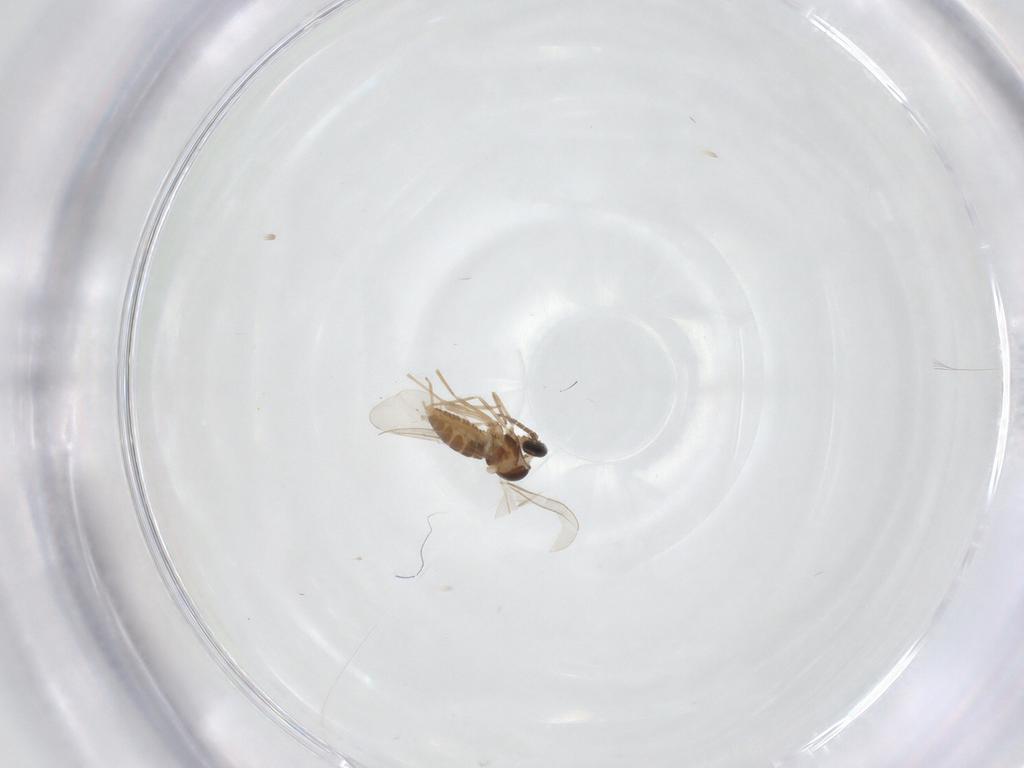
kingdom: Animalia
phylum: Arthropoda
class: Insecta
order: Diptera
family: Cecidomyiidae
